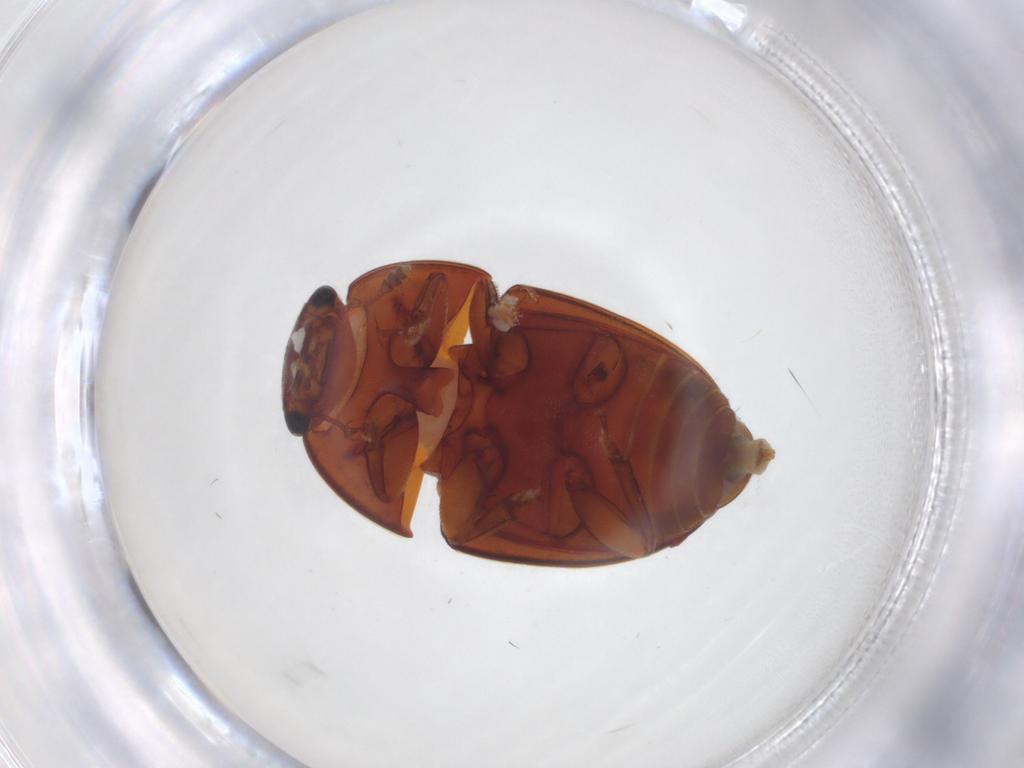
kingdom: Animalia
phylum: Arthropoda
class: Insecta
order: Coleoptera
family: Nitidulidae
